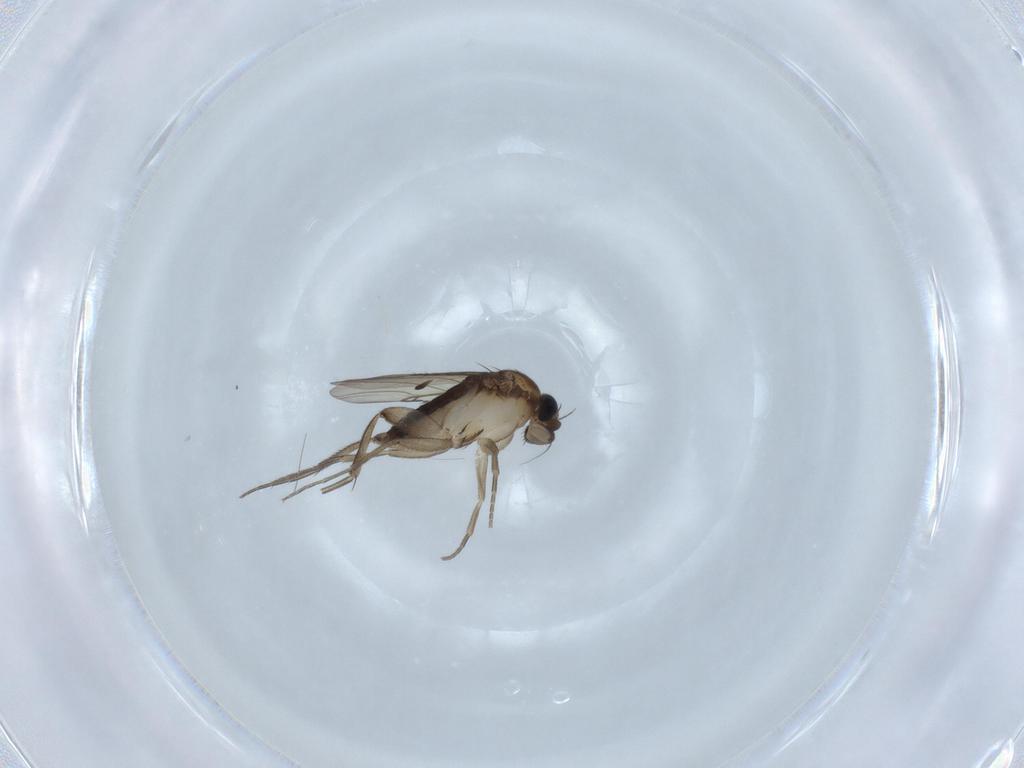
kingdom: Animalia
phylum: Arthropoda
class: Insecta
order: Diptera
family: Phoridae
